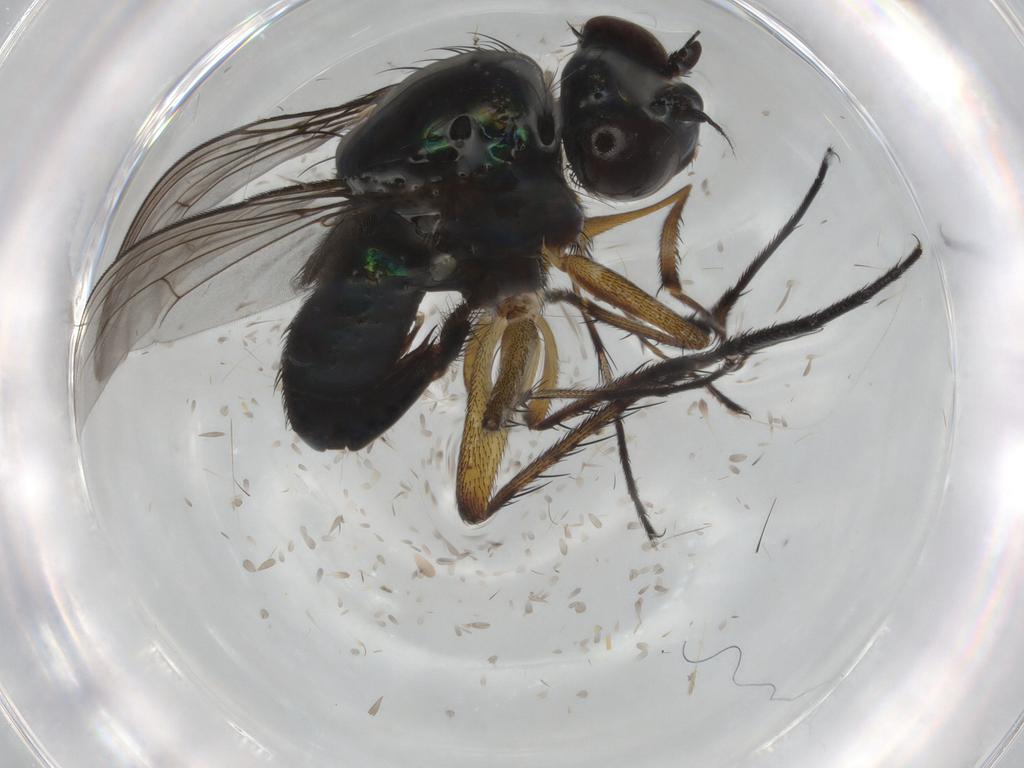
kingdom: Animalia
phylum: Arthropoda
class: Insecta
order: Diptera
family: Dolichopodidae
